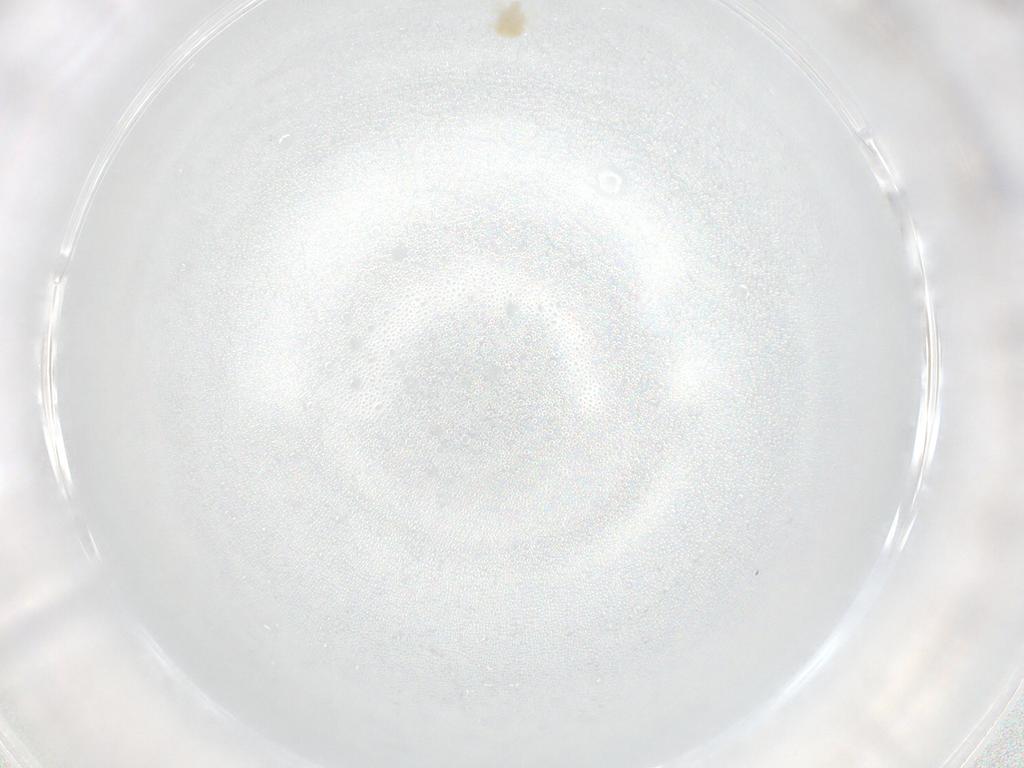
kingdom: Animalia
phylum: Arthropoda
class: Arachnida
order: Trombidiformes
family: Anystidae
